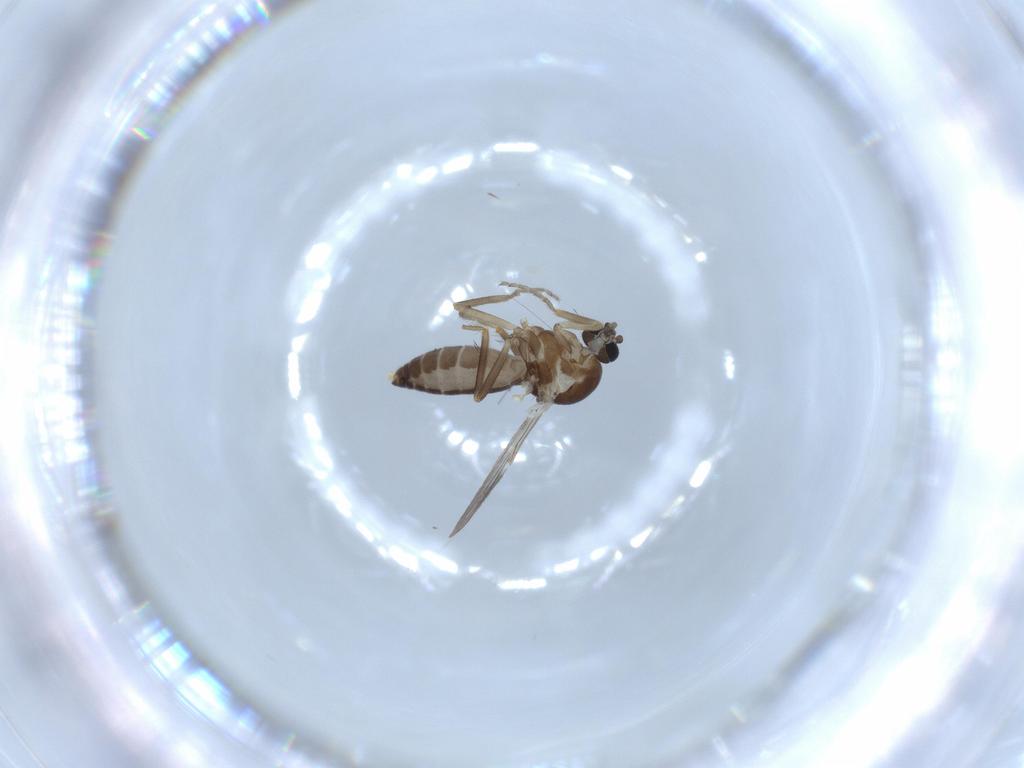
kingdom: Animalia
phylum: Arthropoda
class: Insecta
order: Diptera
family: Ceratopogonidae
